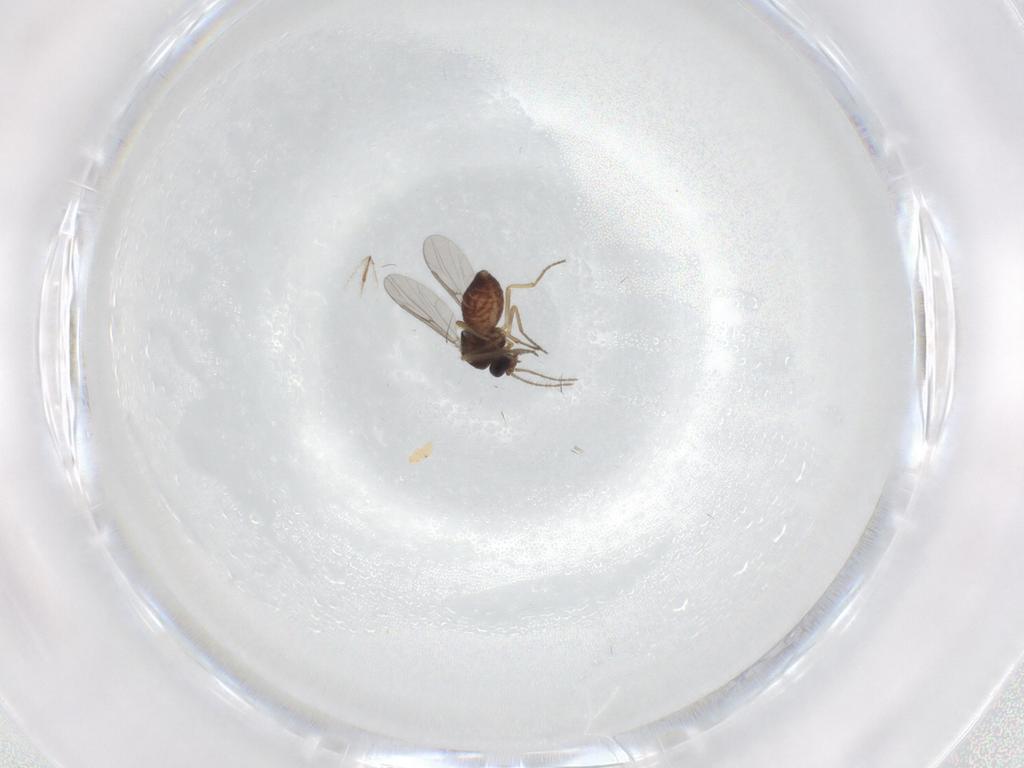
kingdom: Animalia
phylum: Arthropoda
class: Insecta
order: Diptera
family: Ceratopogonidae
